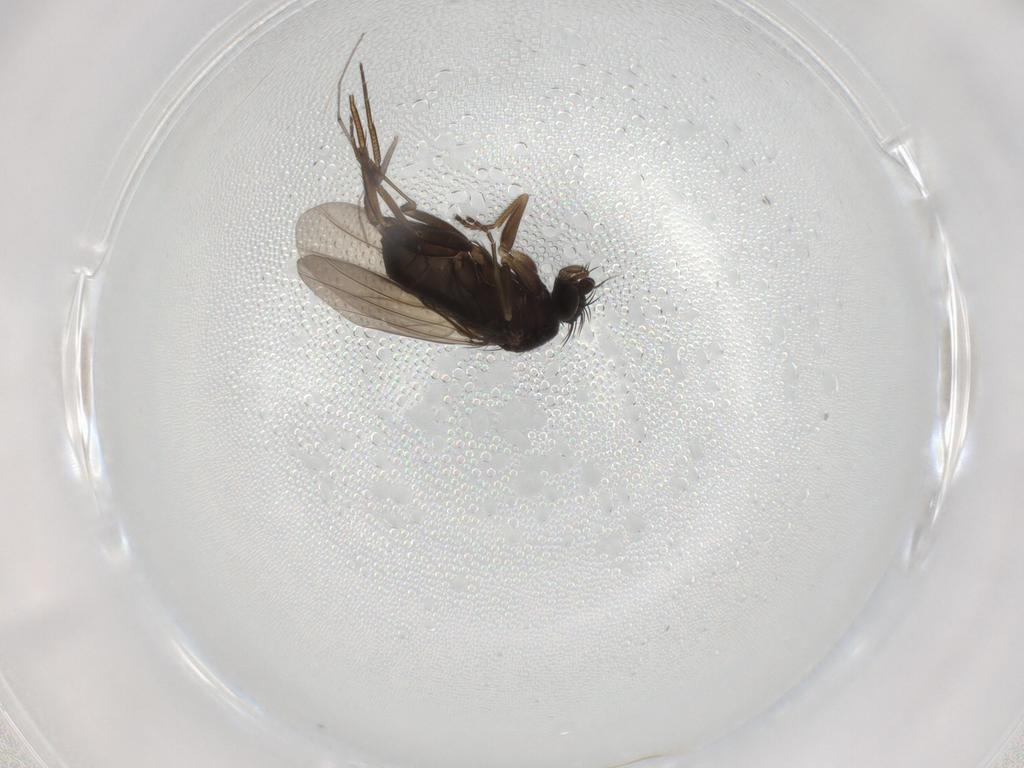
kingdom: Animalia
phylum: Arthropoda
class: Insecta
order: Diptera
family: Phoridae
